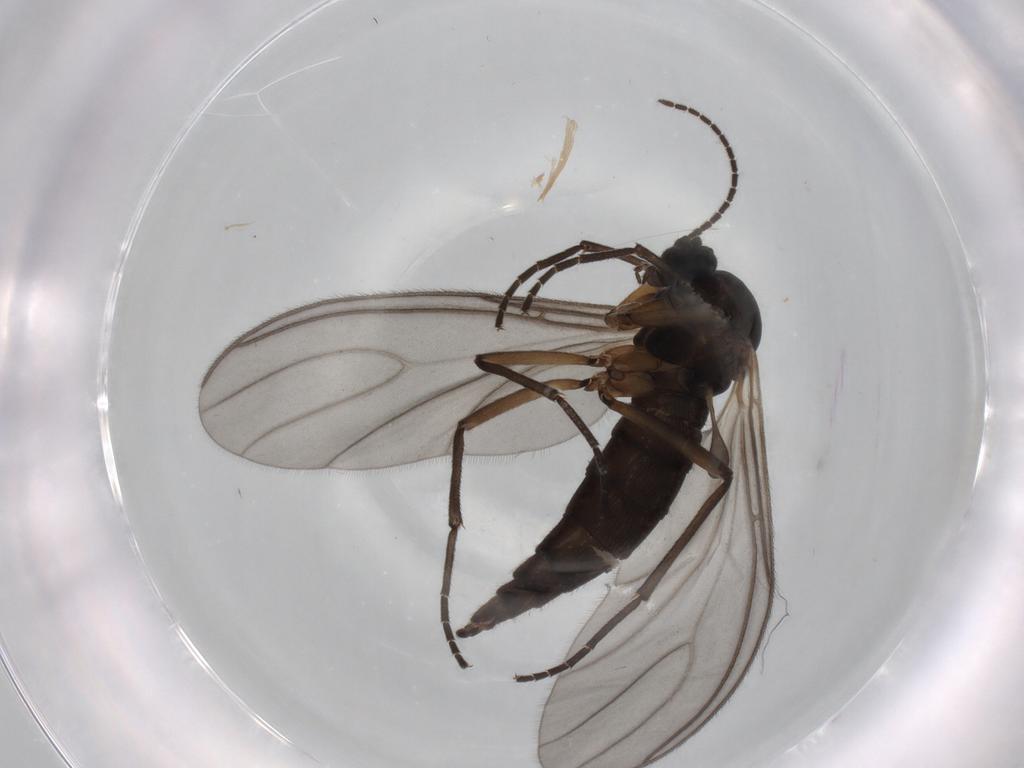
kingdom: Animalia
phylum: Arthropoda
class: Insecta
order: Diptera
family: Sciaridae
